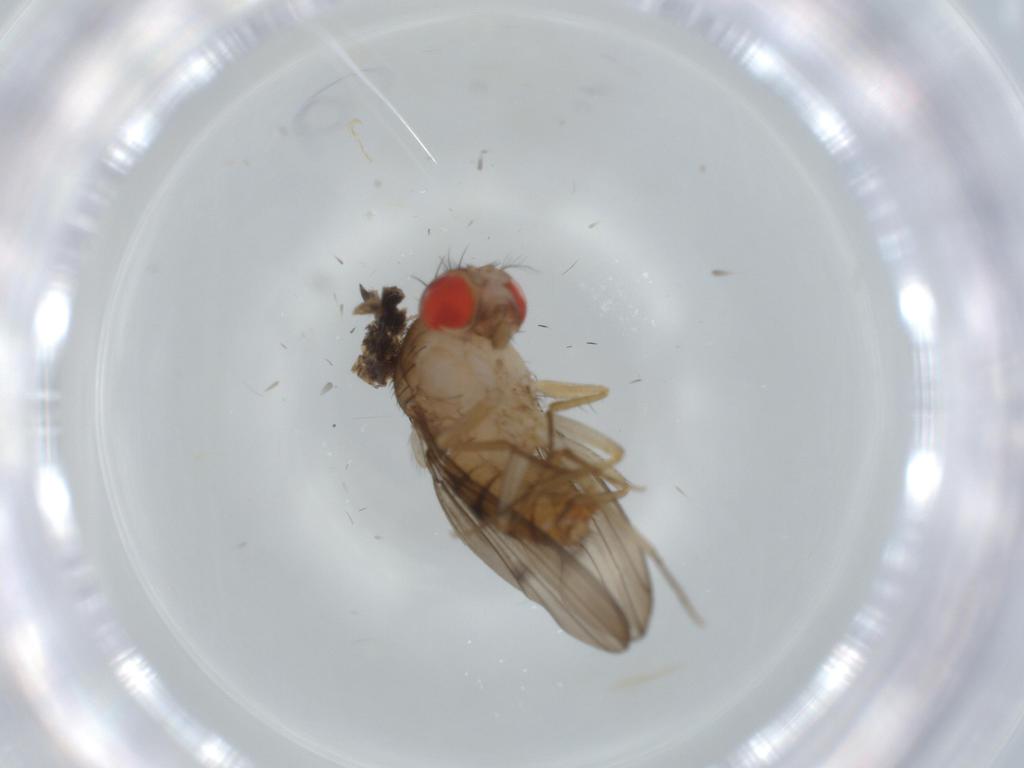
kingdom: Animalia
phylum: Arthropoda
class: Insecta
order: Diptera
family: Drosophilidae
